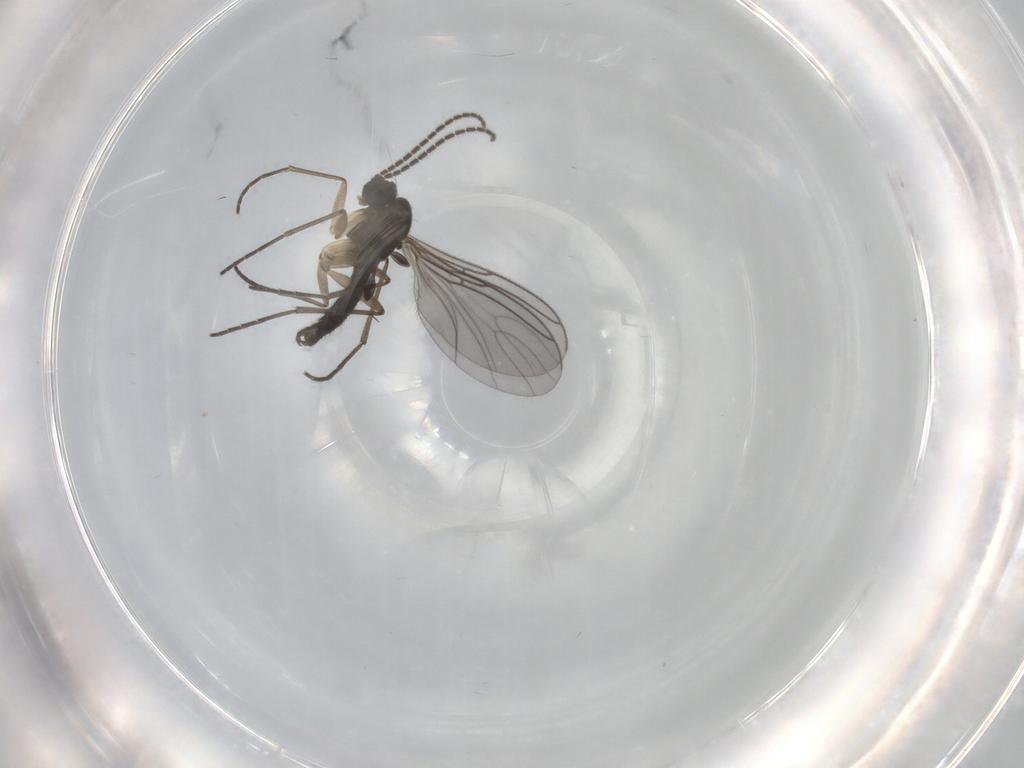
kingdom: Animalia
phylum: Arthropoda
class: Insecta
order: Diptera
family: Sciaridae
